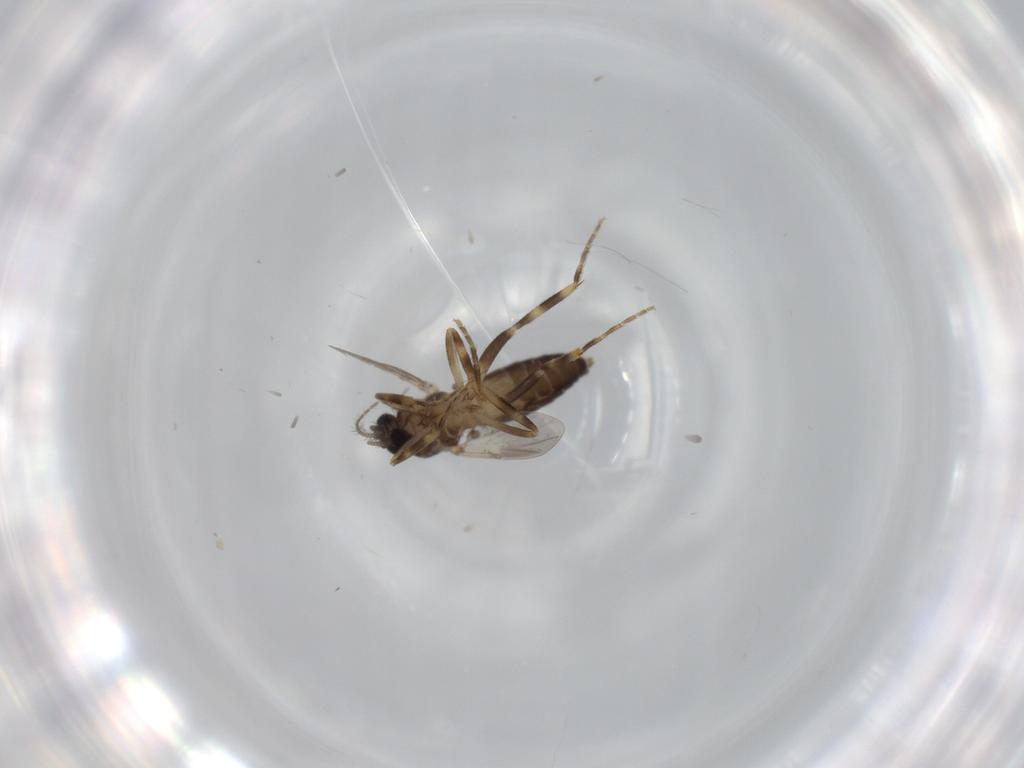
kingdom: Animalia
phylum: Arthropoda
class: Insecta
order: Diptera
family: Ceratopogonidae
